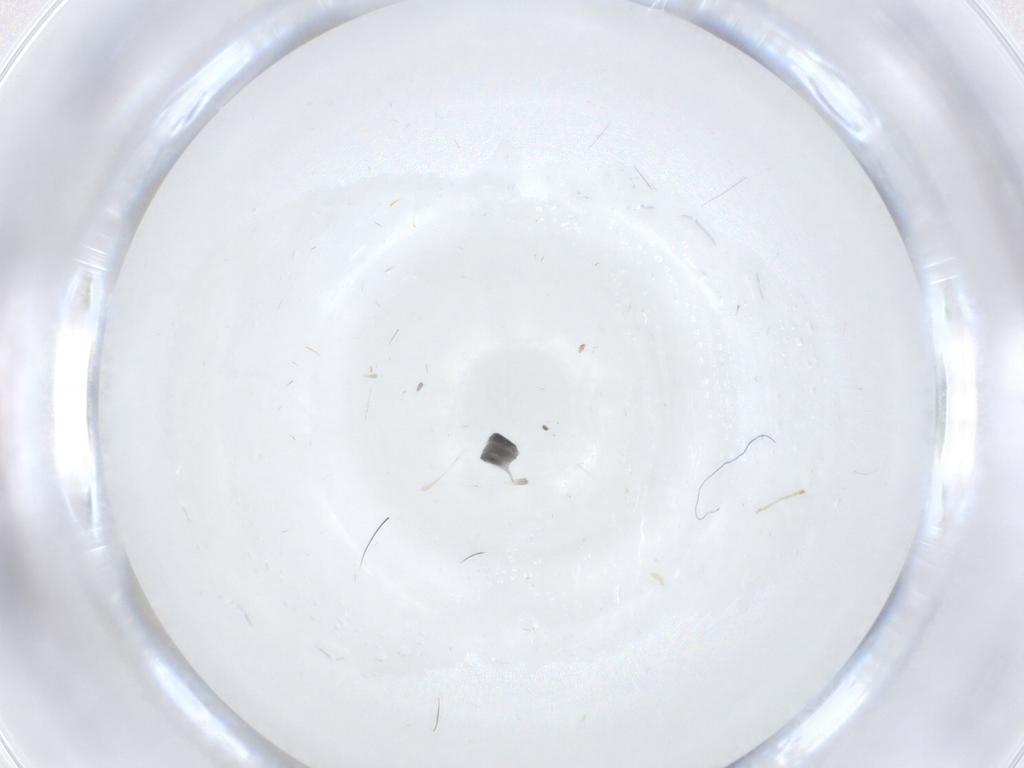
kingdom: Animalia
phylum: Arthropoda
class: Insecta
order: Diptera
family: Cecidomyiidae
